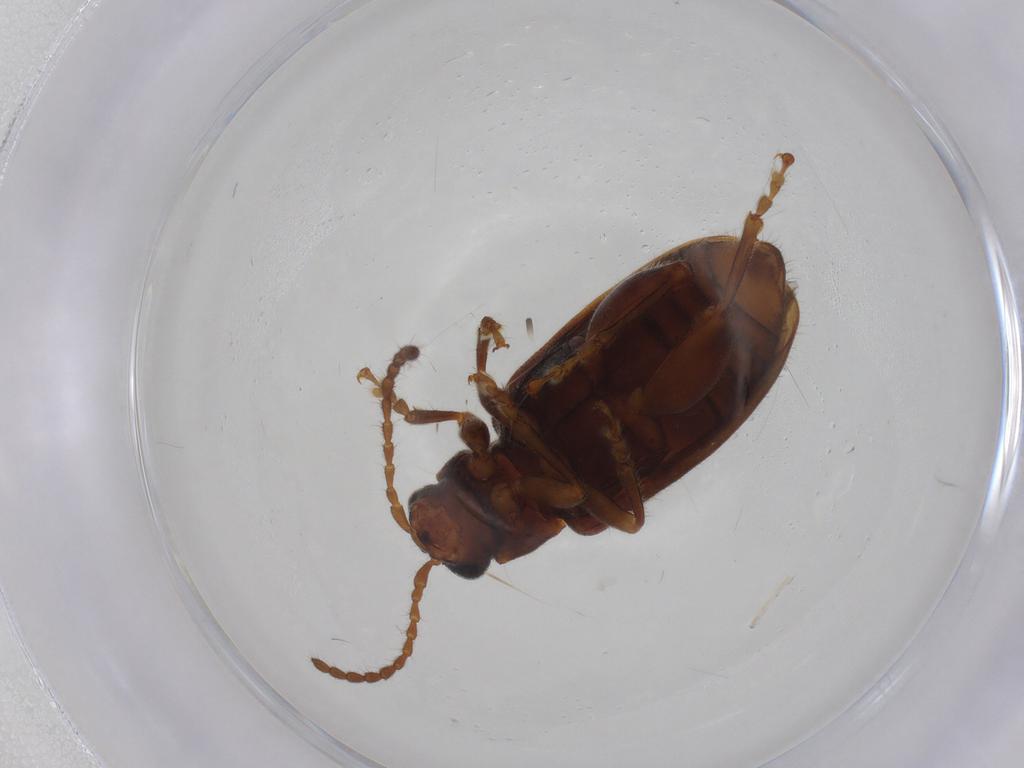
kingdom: Animalia
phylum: Arthropoda
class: Insecta
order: Coleoptera
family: Chrysomelidae
